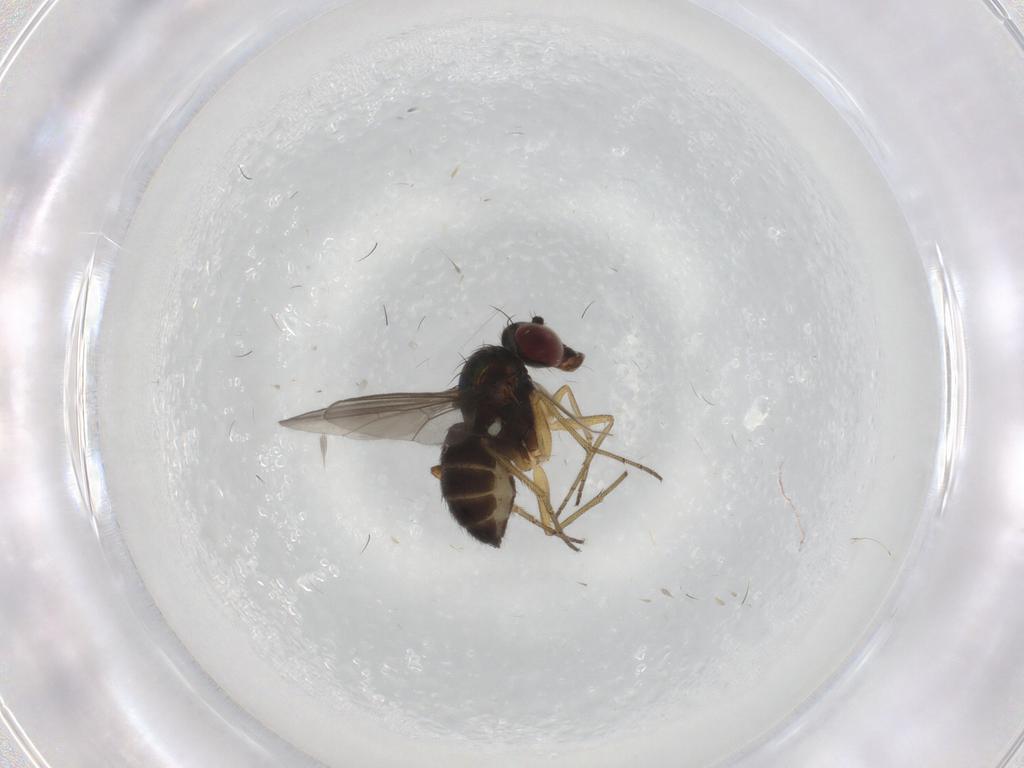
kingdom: Animalia
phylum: Arthropoda
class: Insecta
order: Diptera
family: Dolichopodidae
